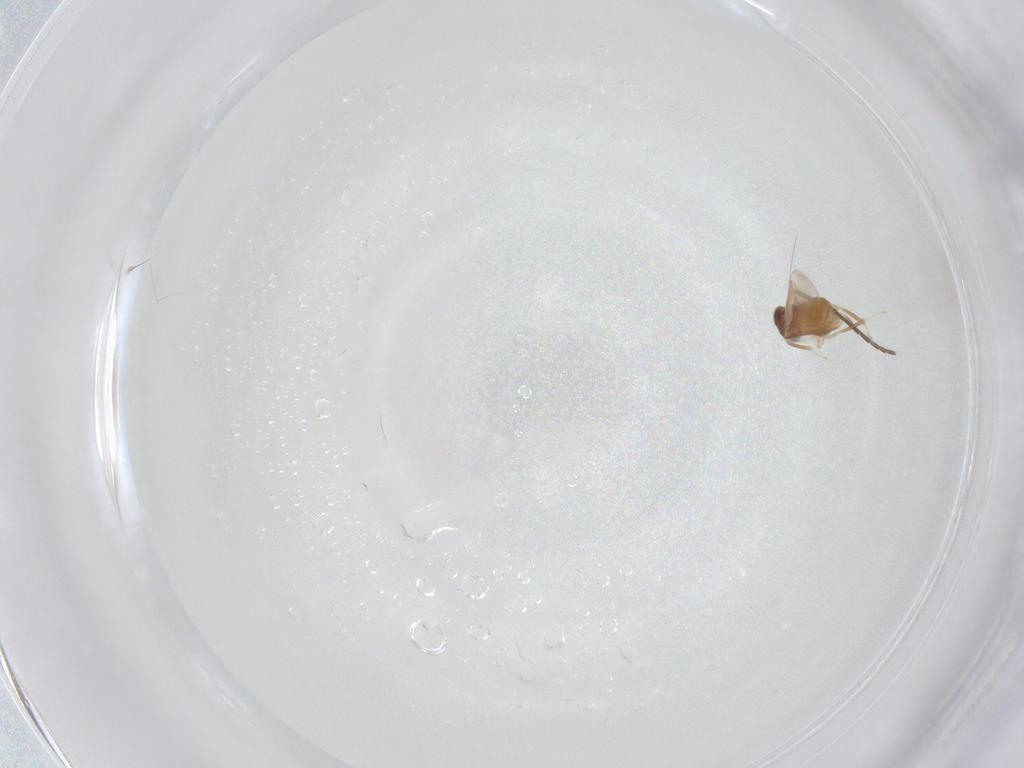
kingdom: Animalia
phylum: Arthropoda
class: Insecta
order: Diptera
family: Sciaridae
